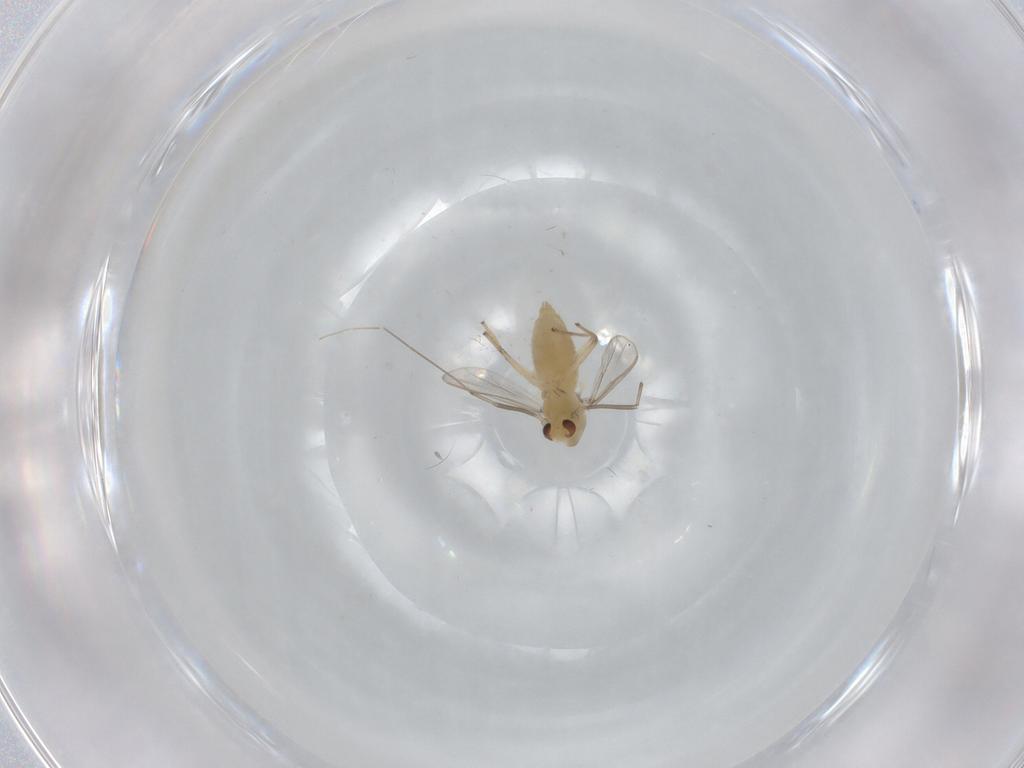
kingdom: Animalia
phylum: Arthropoda
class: Insecta
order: Diptera
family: Chironomidae
